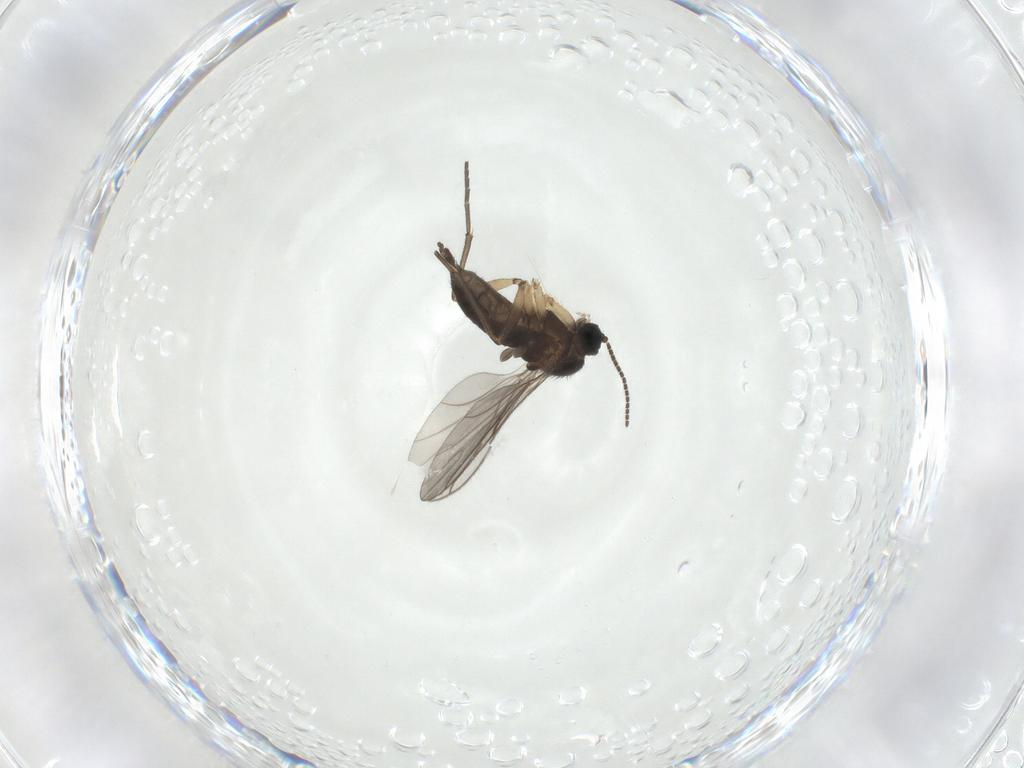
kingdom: Animalia
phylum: Arthropoda
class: Insecta
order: Diptera
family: Sciaridae
